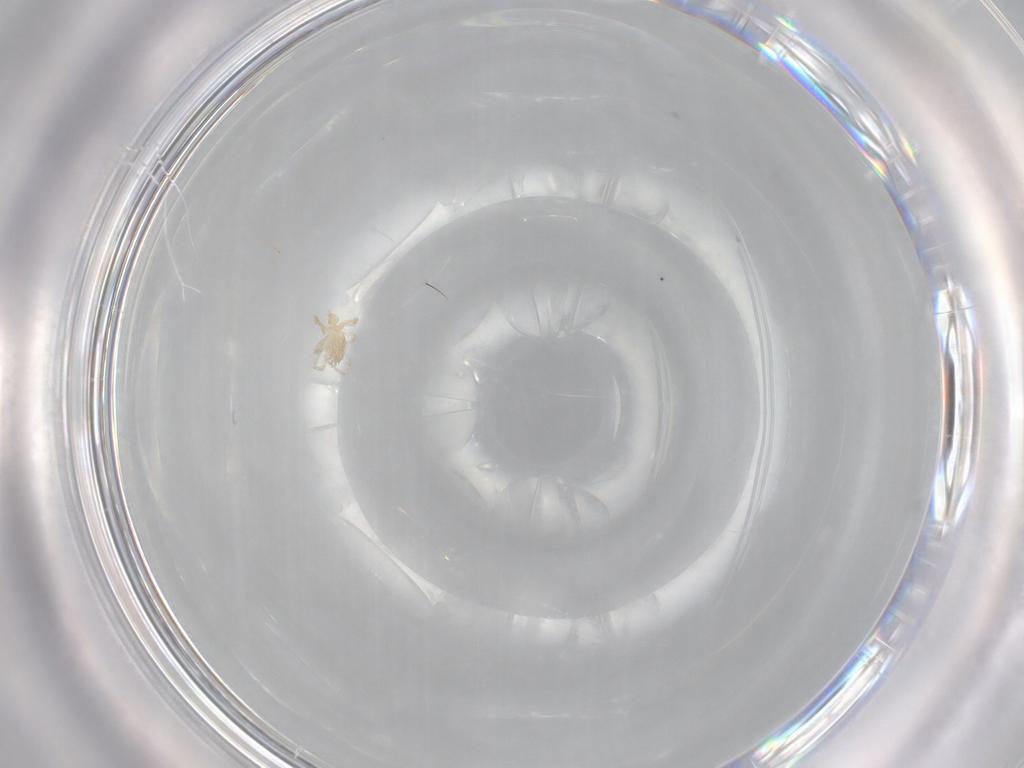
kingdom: Animalia
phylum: Arthropoda
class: Arachnida
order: Trombidiformes
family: Erythraeidae
